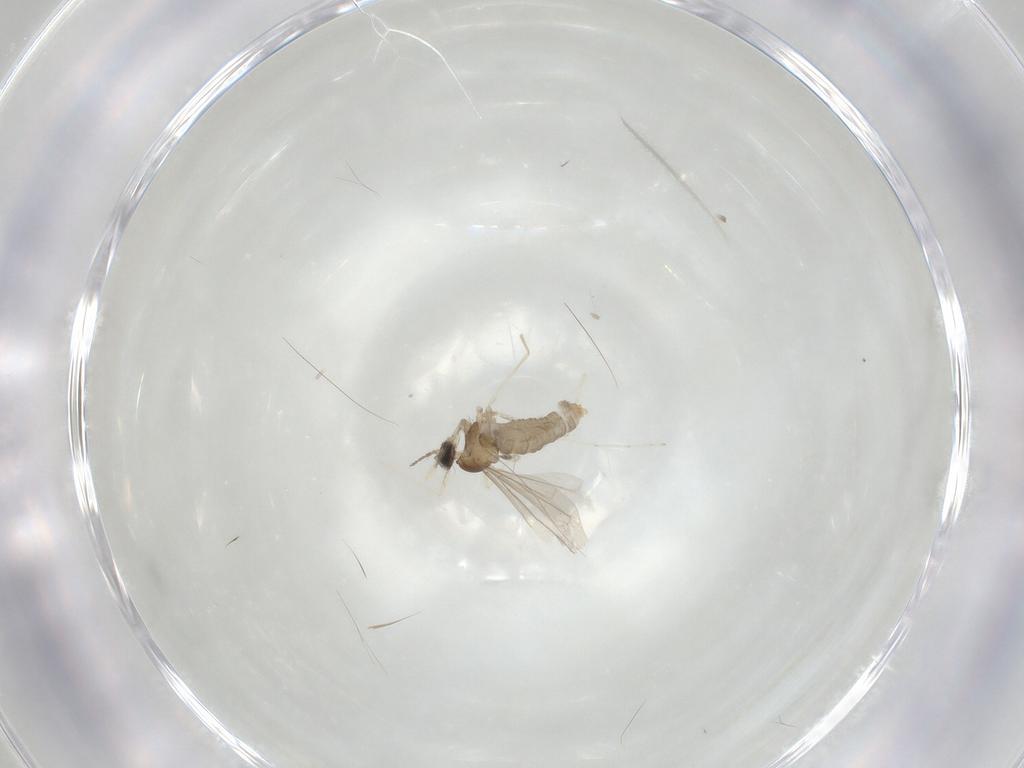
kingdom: Animalia
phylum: Arthropoda
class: Insecta
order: Diptera
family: Cecidomyiidae
